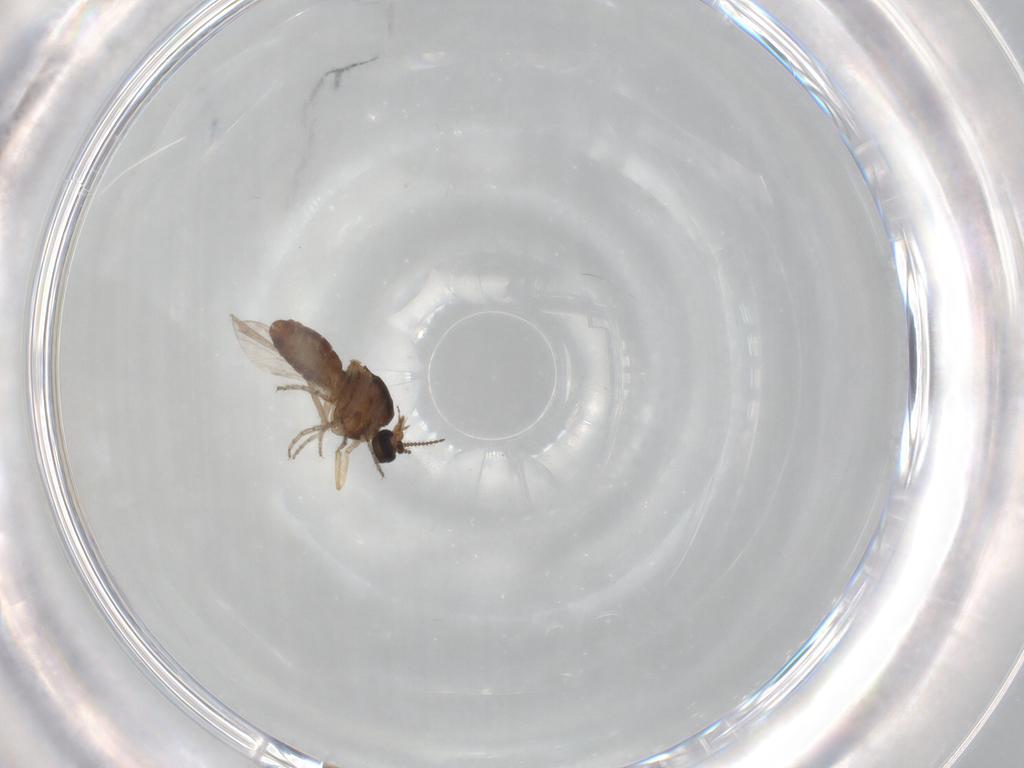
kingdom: Animalia
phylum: Arthropoda
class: Insecta
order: Diptera
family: Ceratopogonidae
